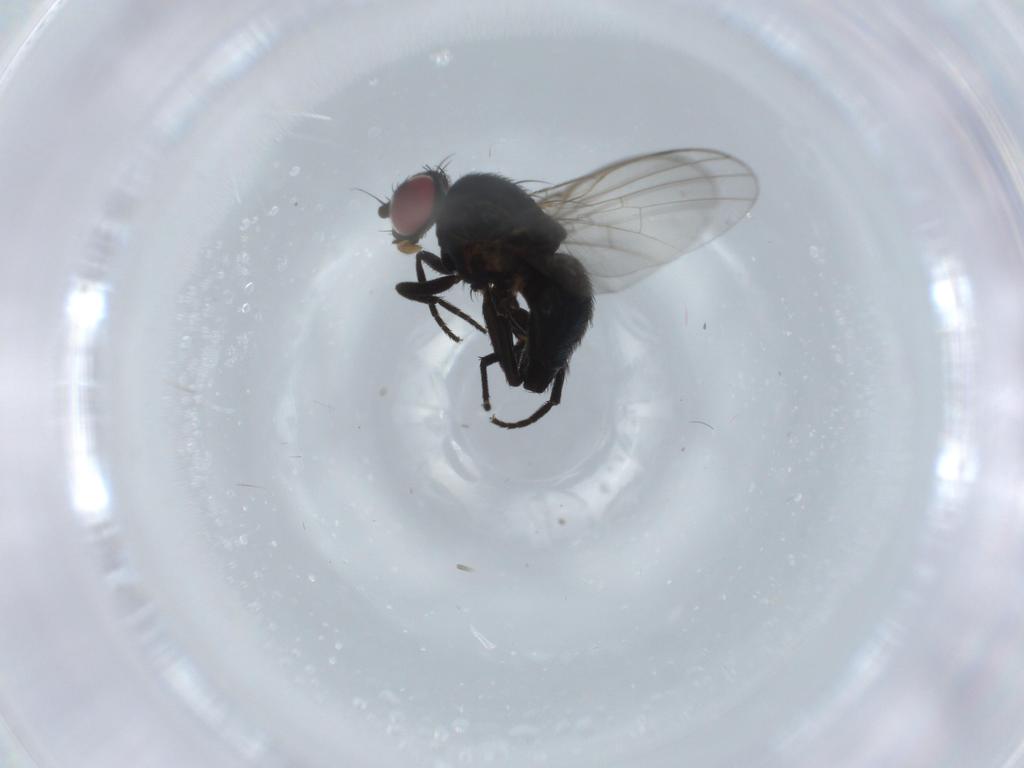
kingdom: Animalia
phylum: Arthropoda
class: Insecta
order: Diptera
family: Agromyzidae
